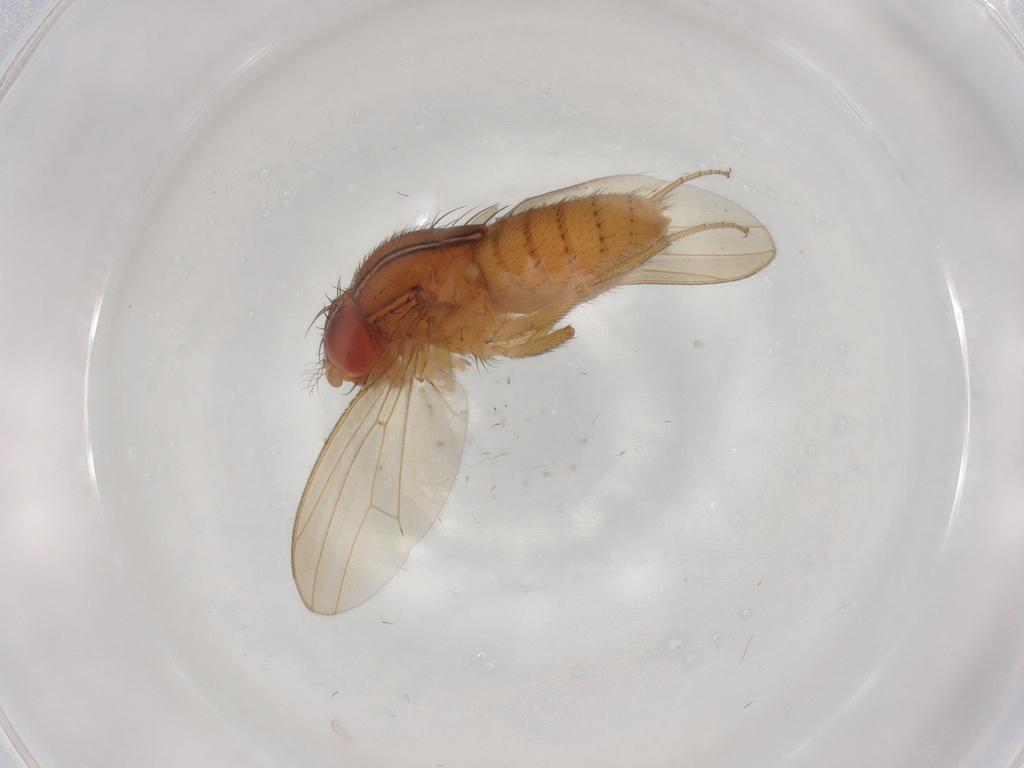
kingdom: Animalia
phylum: Arthropoda
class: Insecta
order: Diptera
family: Drosophilidae
